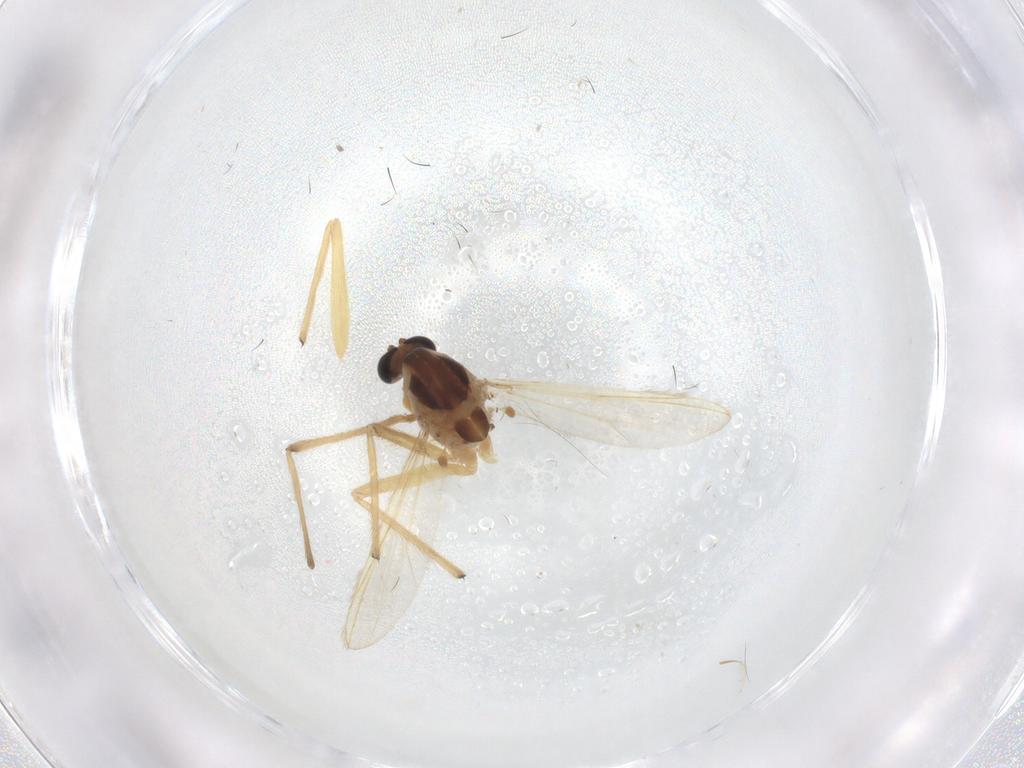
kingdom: Animalia
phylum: Arthropoda
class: Insecta
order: Diptera
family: Chironomidae
